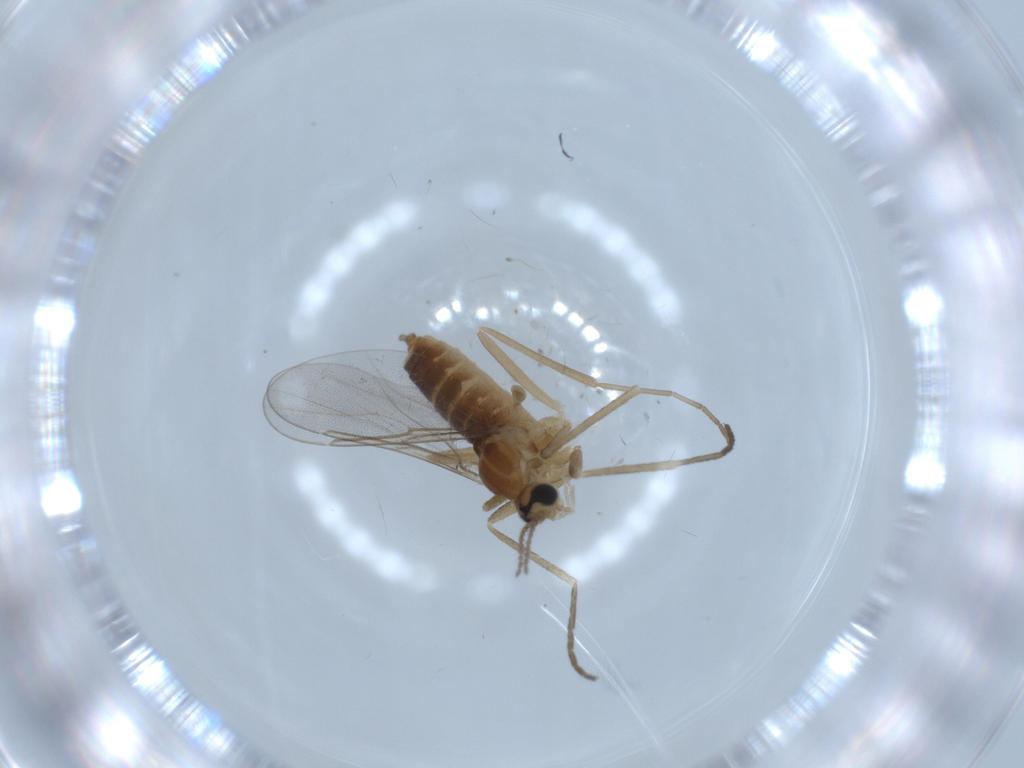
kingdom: Animalia
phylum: Arthropoda
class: Insecta
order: Diptera
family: Cecidomyiidae
